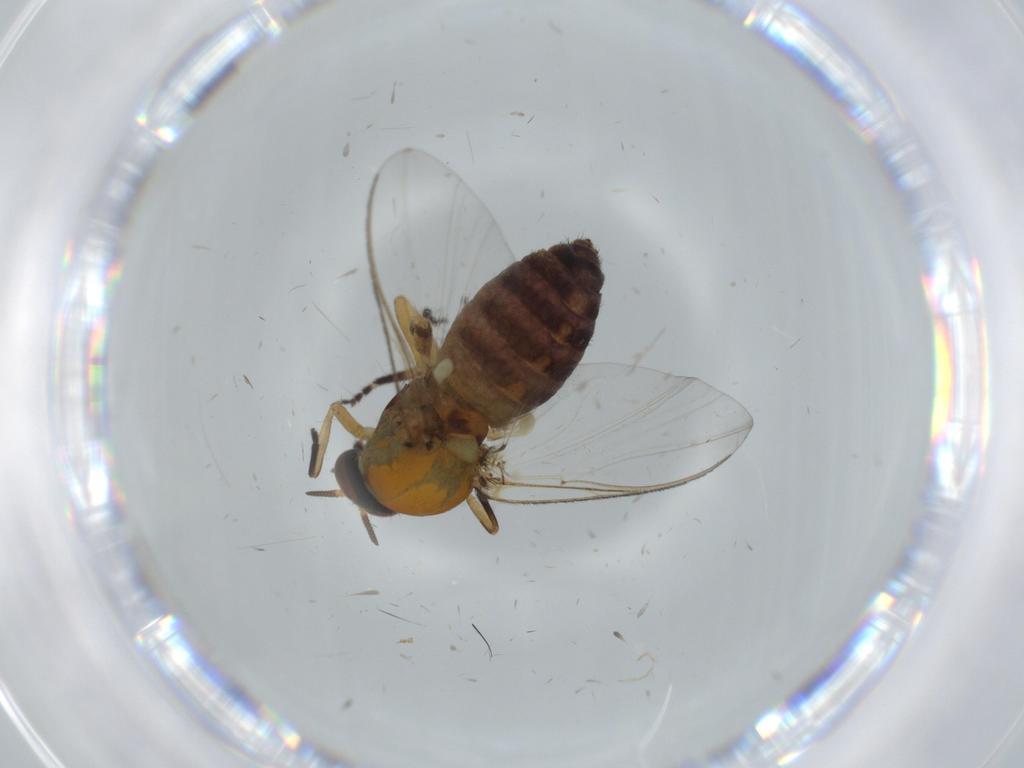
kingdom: Animalia
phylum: Arthropoda
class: Insecta
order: Diptera
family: Cecidomyiidae
